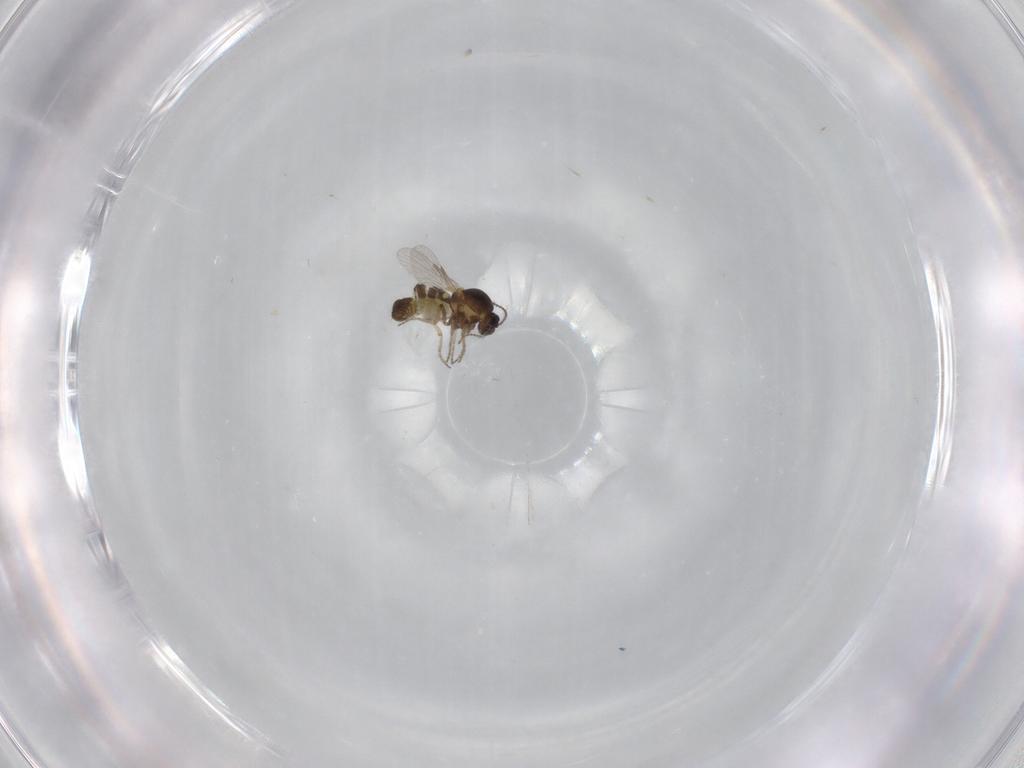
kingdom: Animalia
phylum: Arthropoda
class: Insecta
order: Diptera
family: Ceratopogonidae
